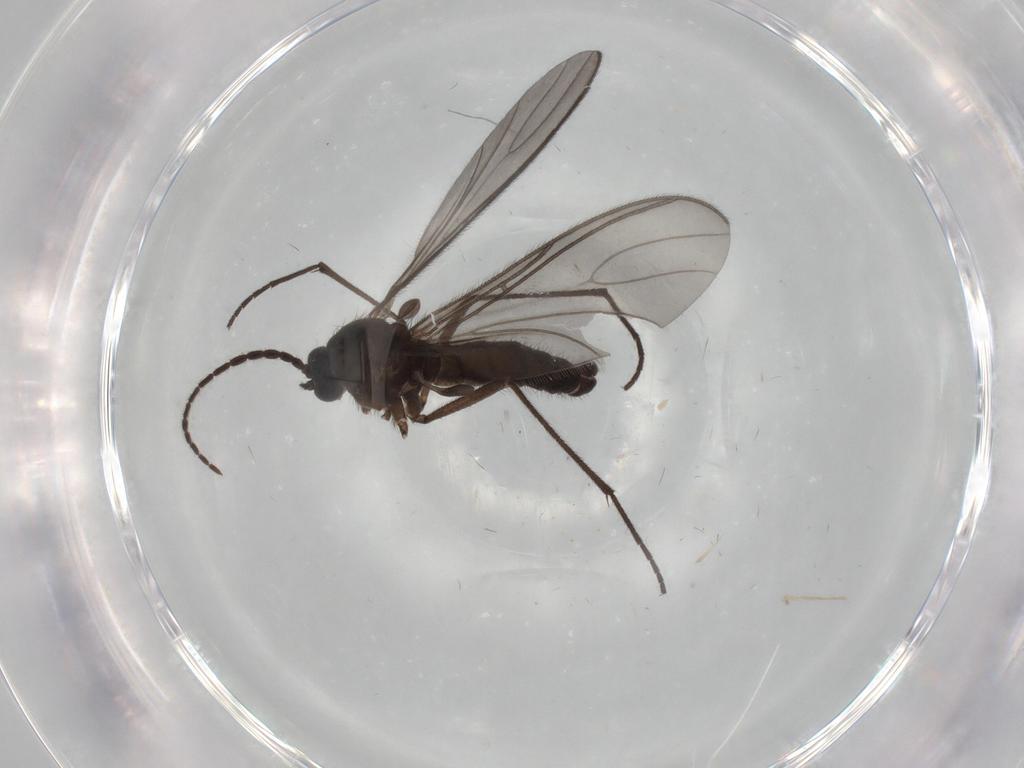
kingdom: Animalia
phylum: Arthropoda
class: Insecta
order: Diptera
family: Sciaridae
